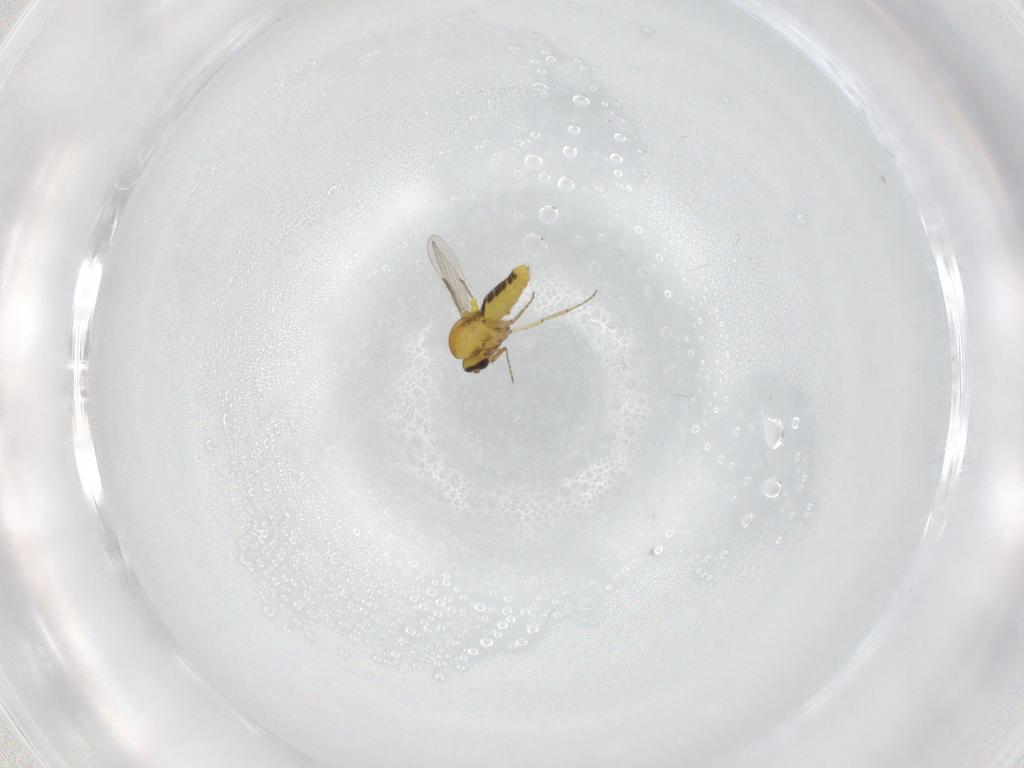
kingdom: Animalia
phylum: Arthropoda
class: Insecta
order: Diptera
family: Ceratopogonidae
